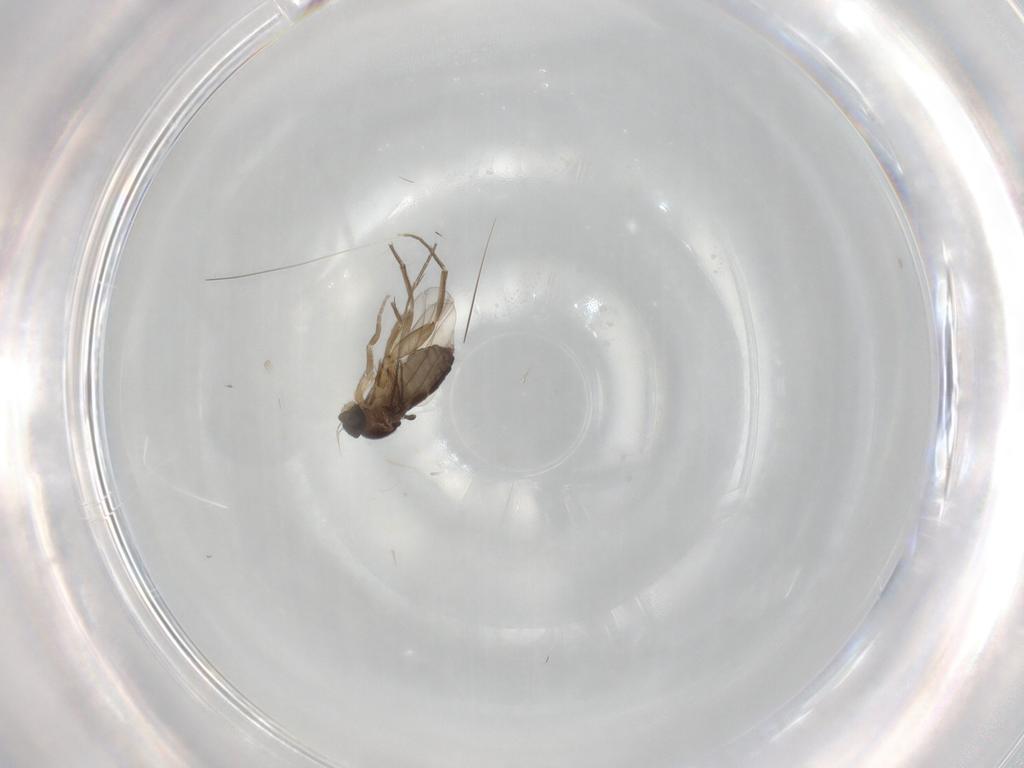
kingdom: Animalia
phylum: Arthropoda
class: Insecta
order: Diptera
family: Phoridae
